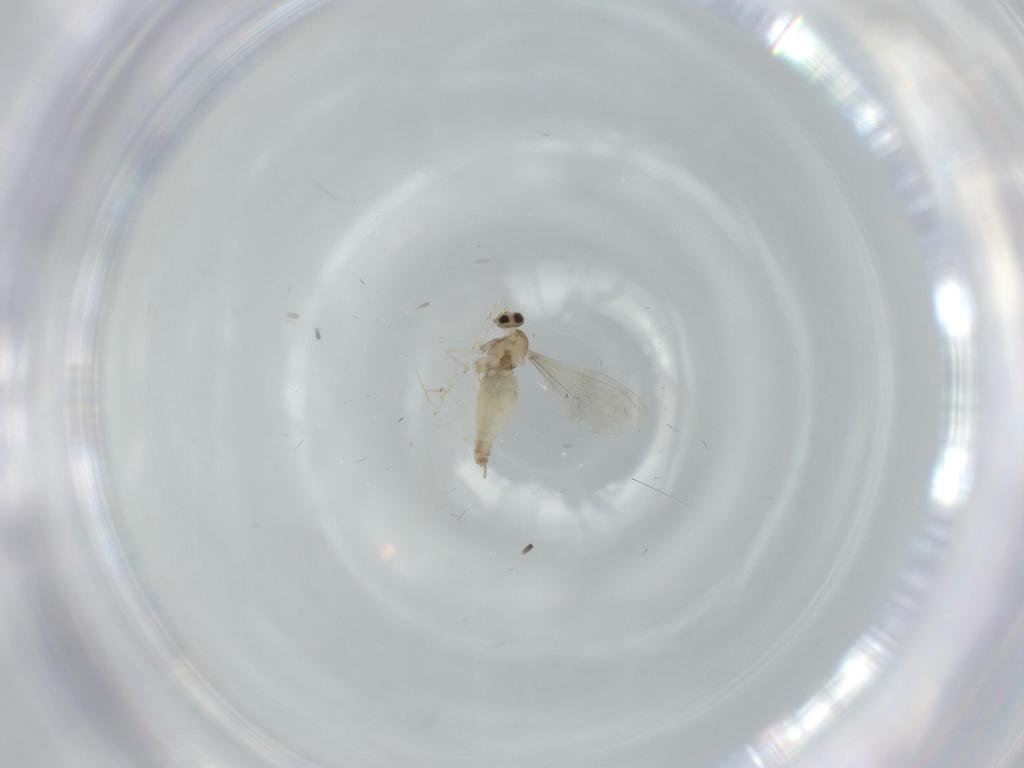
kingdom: Animalia
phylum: Arthropoda
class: Insecta
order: Diptera
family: Cecidomyiidae
